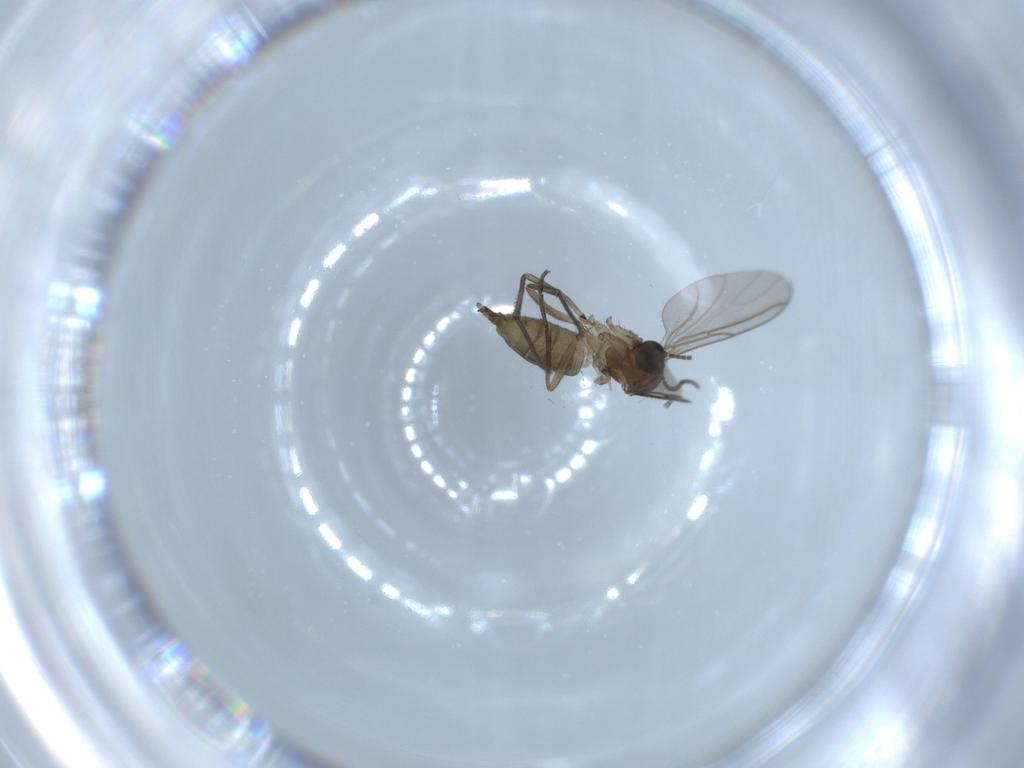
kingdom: Animalia
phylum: Arthropoda
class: Insecta
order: Diptera
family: Sciaridae
